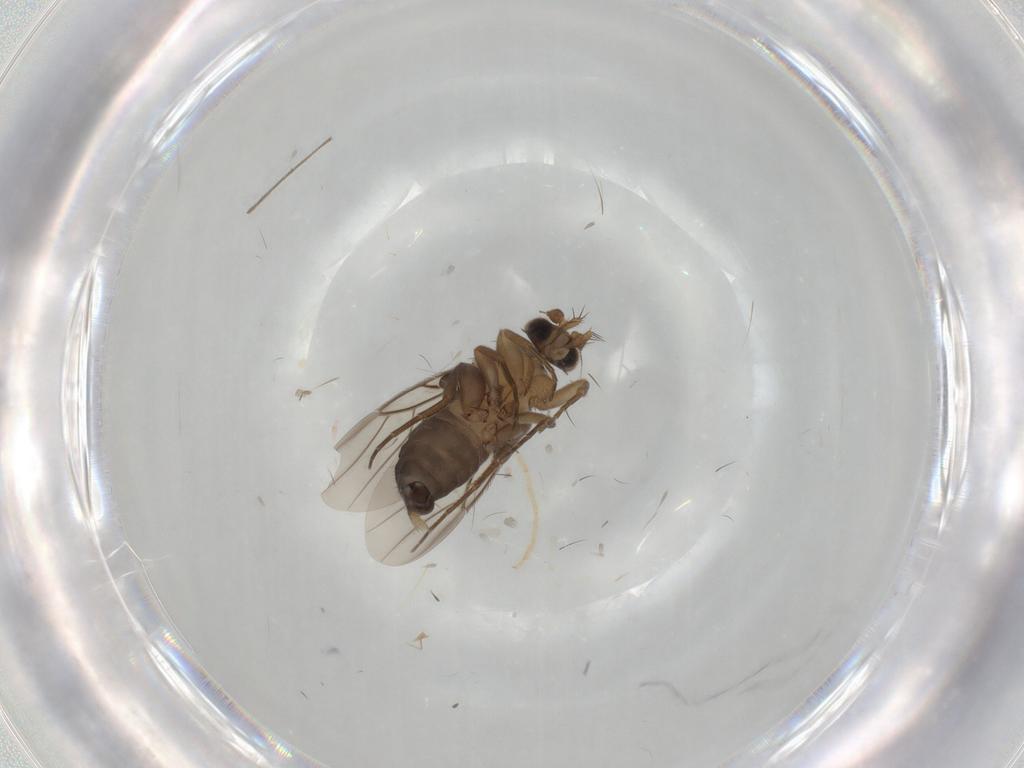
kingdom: Animalia
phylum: Arthropoda
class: Insecta
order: Diptera
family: Phoridae
